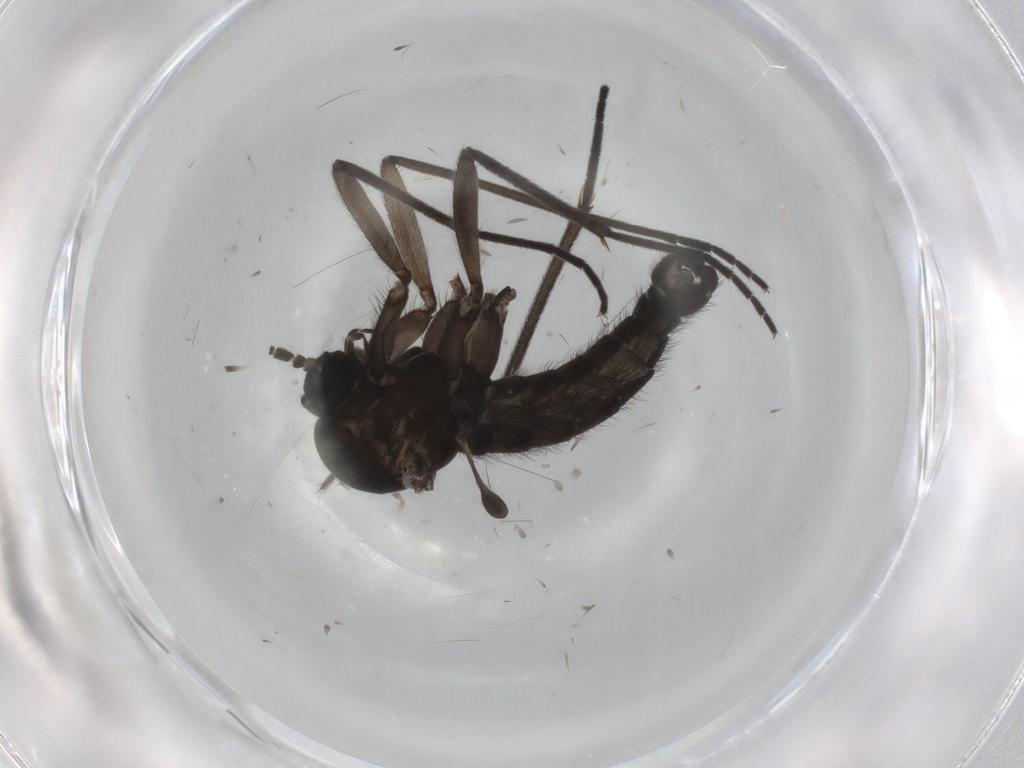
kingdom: Animalia
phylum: Arthropoda
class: Insecta
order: Diptera
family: Sciaridae
